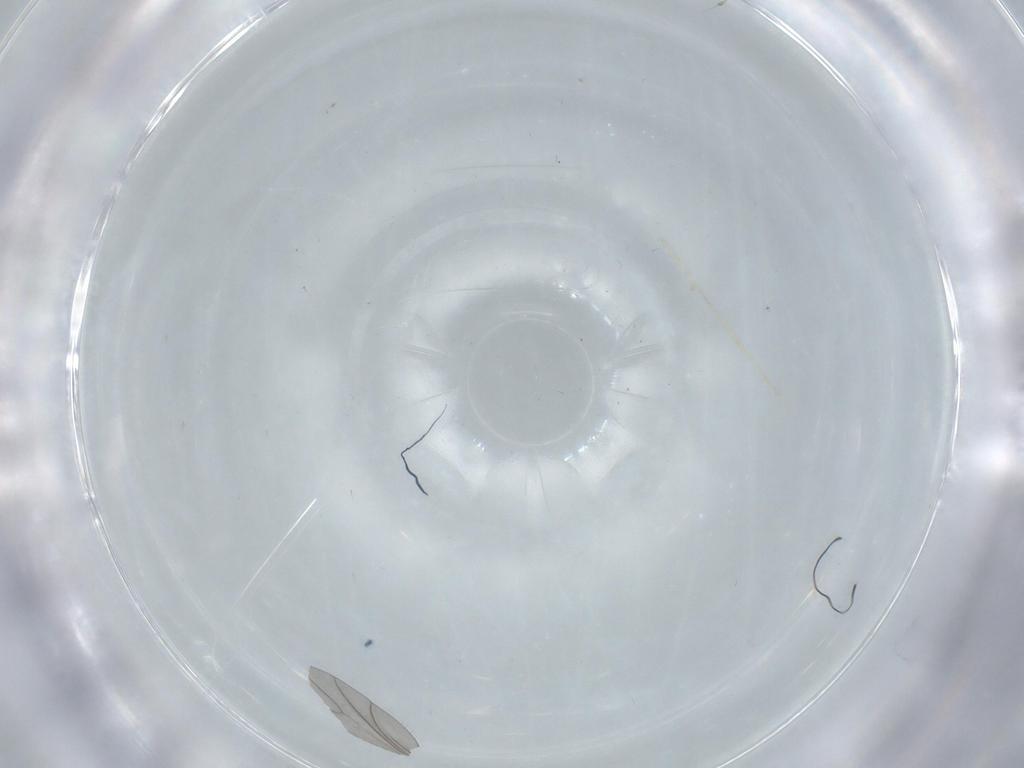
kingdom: Animalia
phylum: Arthropoda
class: Insecta
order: Hymenoptera
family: Diapriidae
